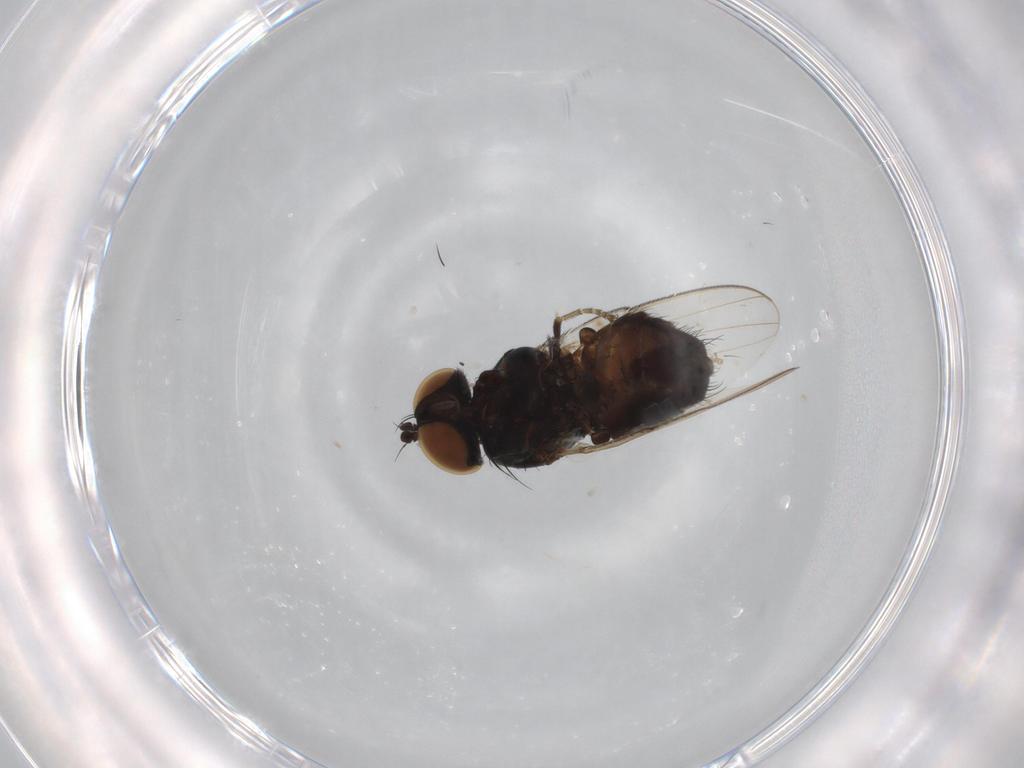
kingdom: Animalia
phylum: Arthropoda
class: Insecta
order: Diptera
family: Milichiidae
